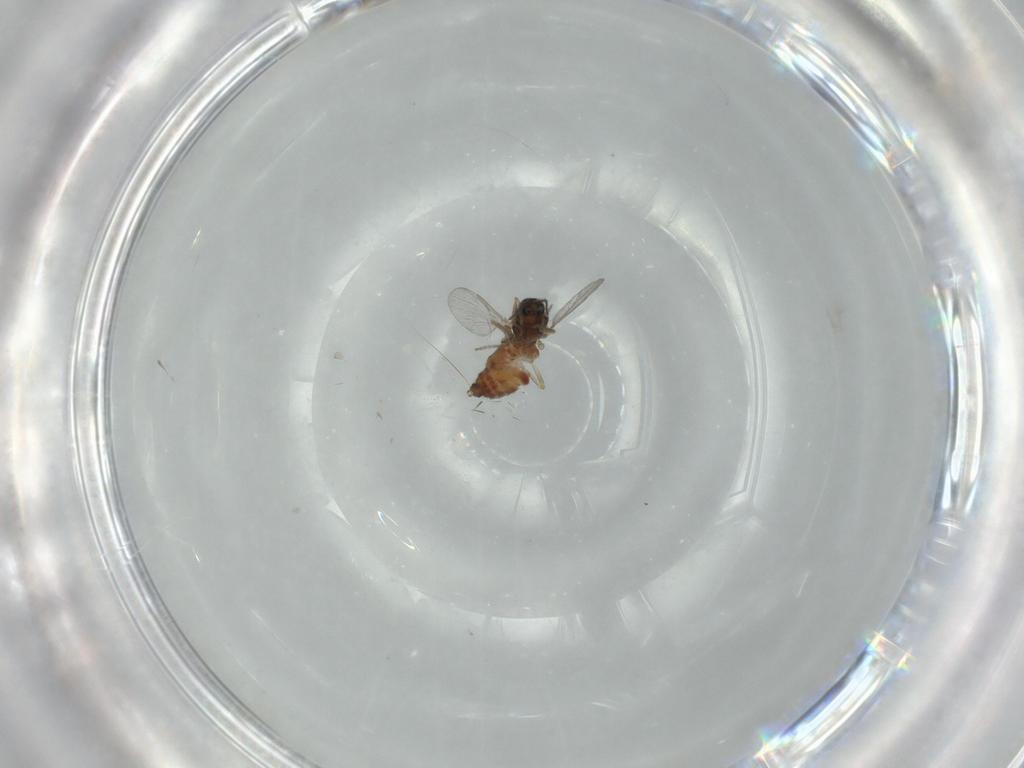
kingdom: Animalia
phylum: Arthropoda
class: Insecta
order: Diptera
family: Ceratopogonidae
